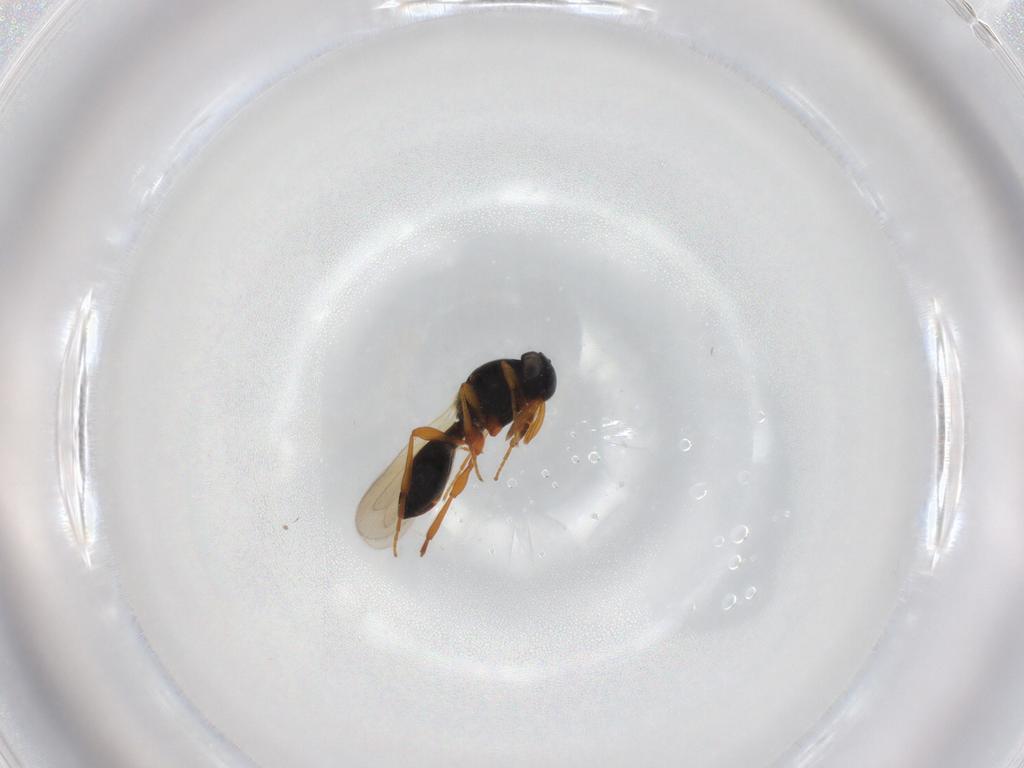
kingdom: Animalia
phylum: Arthropoda
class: Insecta
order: Hymenoptera
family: Platygastridae
